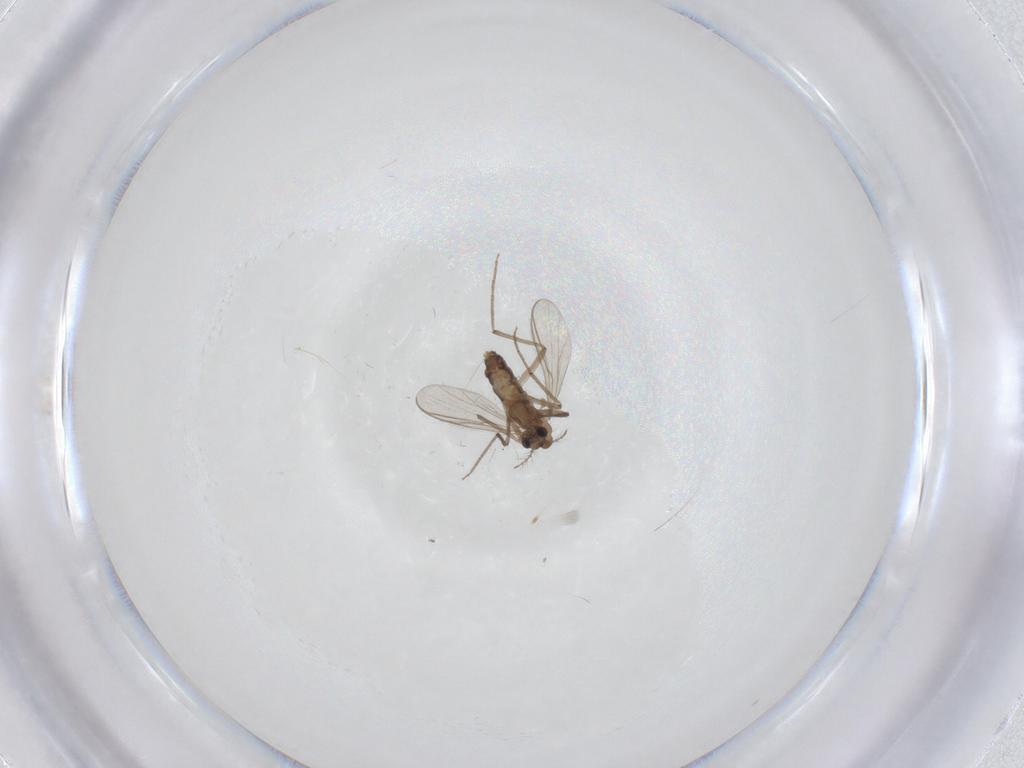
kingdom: Animalia
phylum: Arthropoda
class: Insecta
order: Diptera
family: Chironomidae
